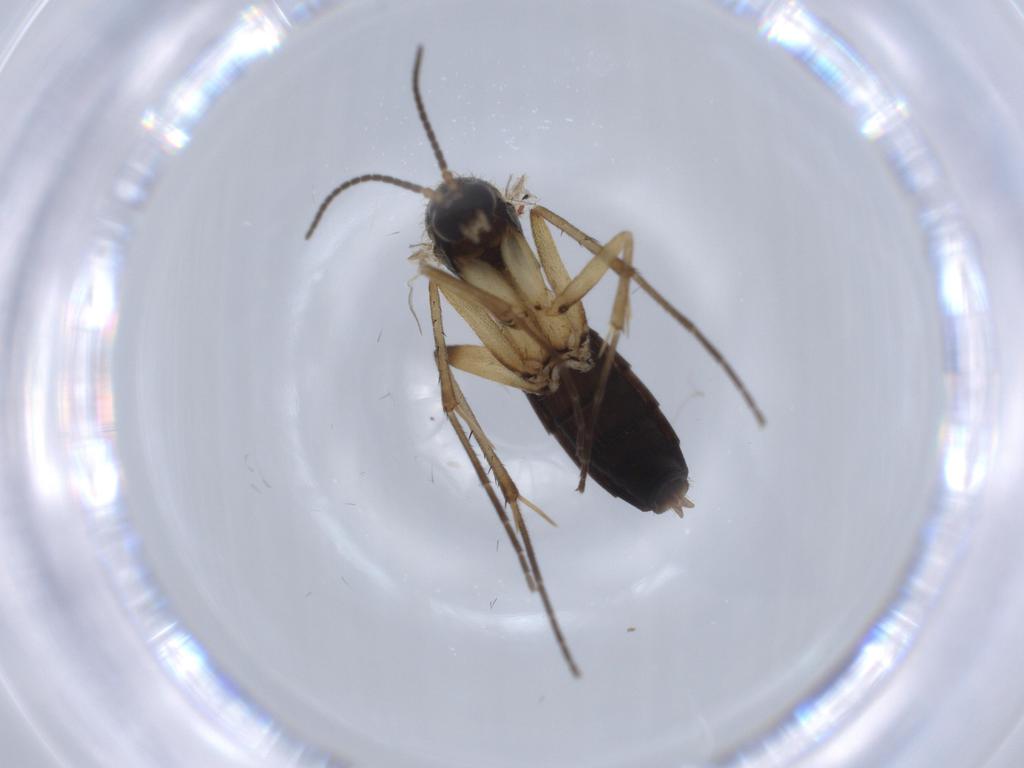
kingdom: Animalia
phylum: Arthropoda
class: Insecta
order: Diptera
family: Mycetophilidae
